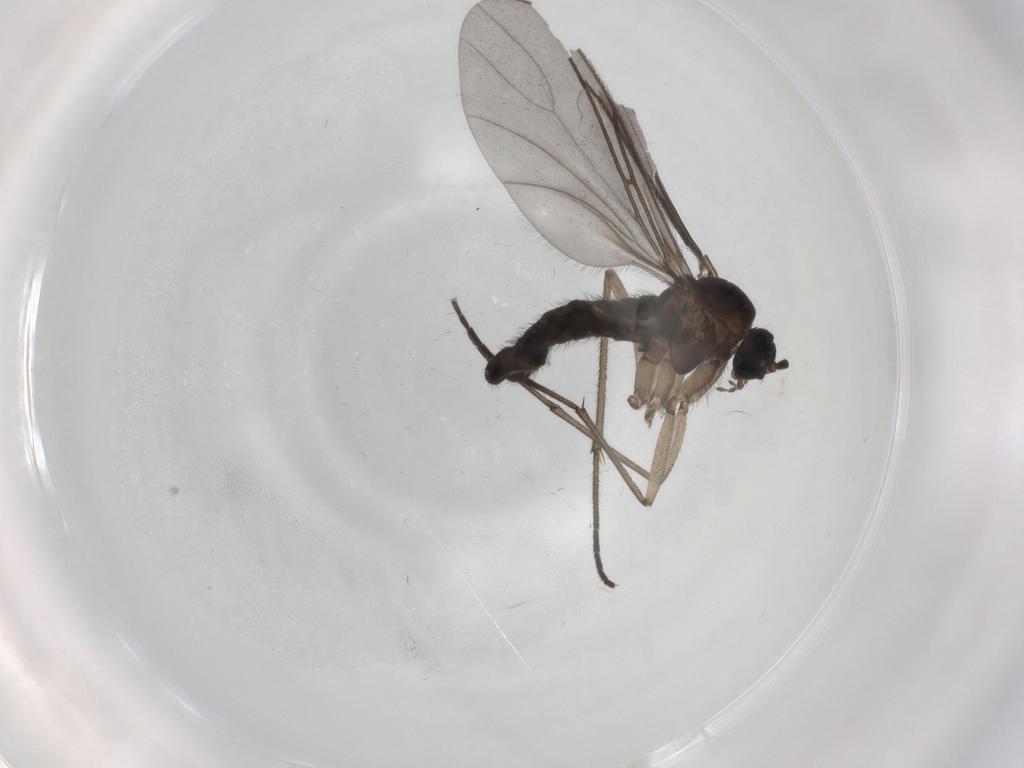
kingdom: Animalia
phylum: Arthropoda
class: Insecta
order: Diptera
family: Sciaridae
